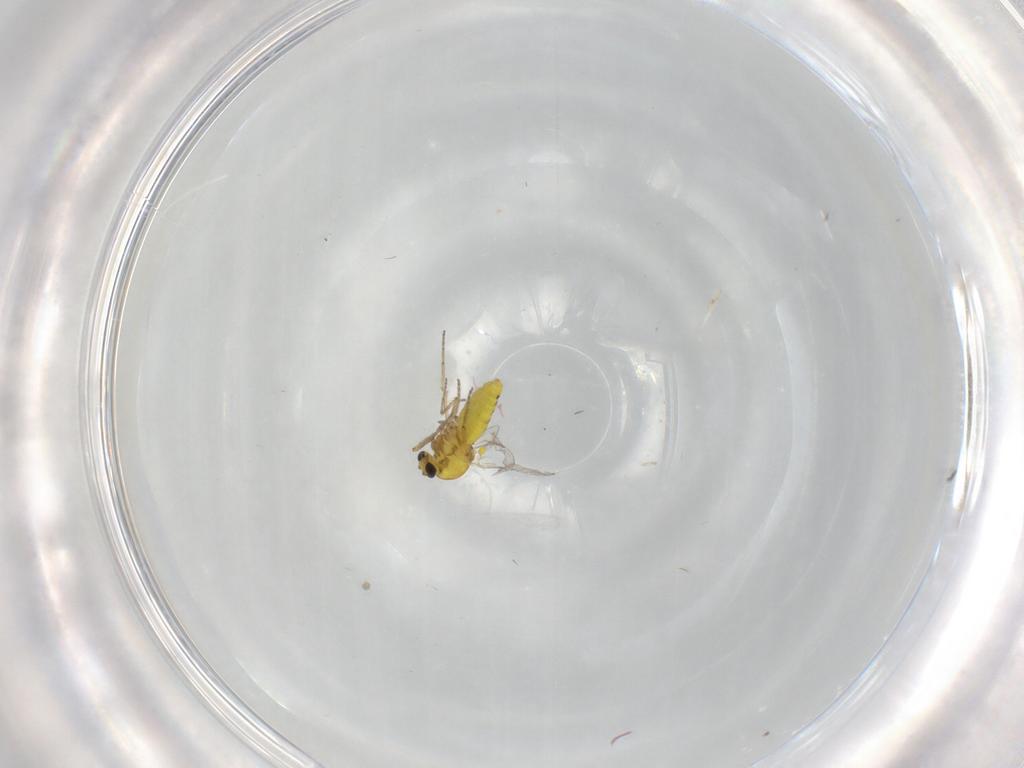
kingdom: Animalia
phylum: Arthropoda
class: Insecta
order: Diptera
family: Ceratopogonidae
